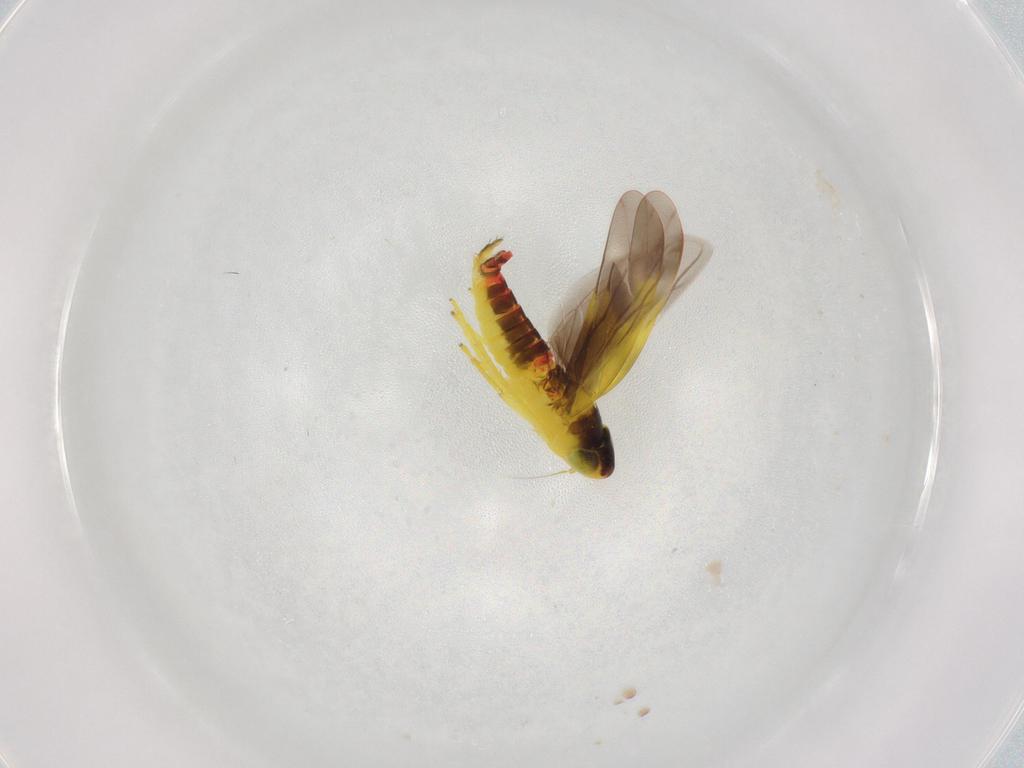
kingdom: Animalia
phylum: Arthropoda
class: Insecta
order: Hemiptera
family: Cicadellidae
